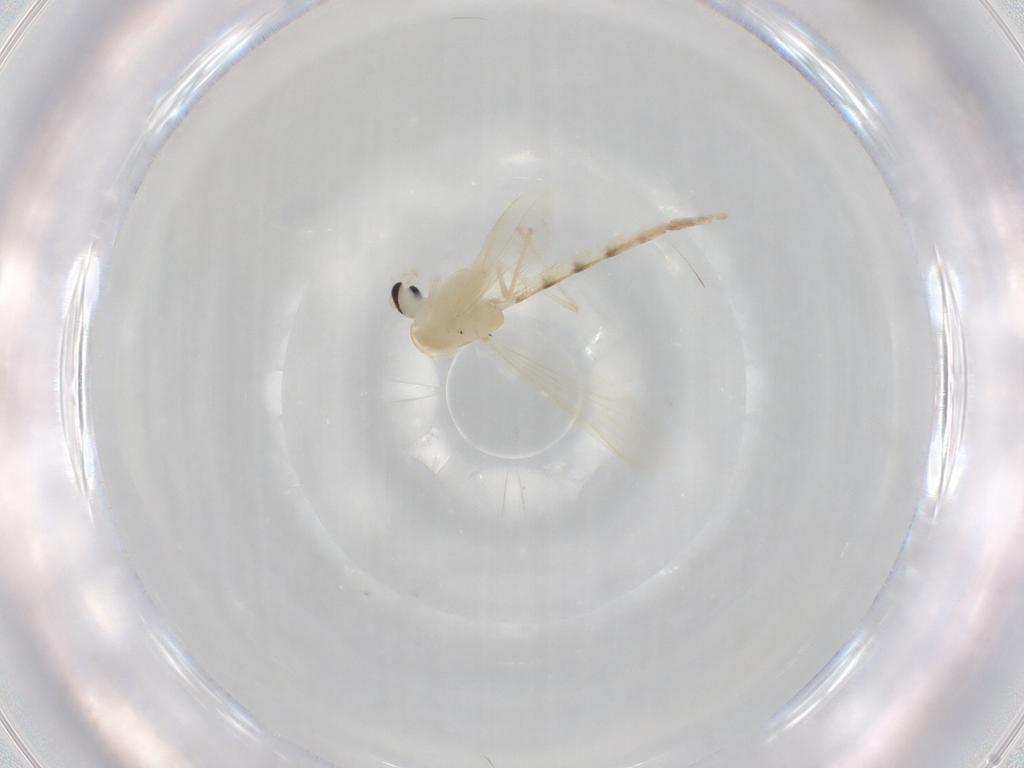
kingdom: Animalia
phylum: Arthropoda
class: Insecta
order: Diptera
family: Chironomidae
